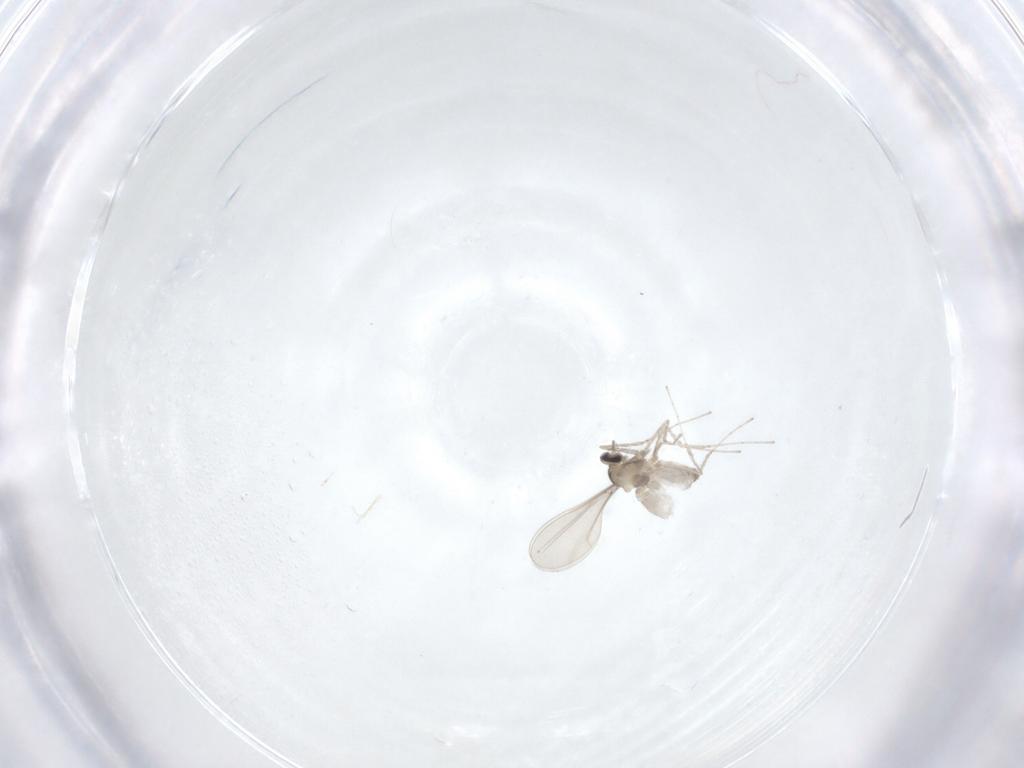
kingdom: Animalia
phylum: Arthropoda
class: Insecta
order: Diptera
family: Cecidomyiidae
